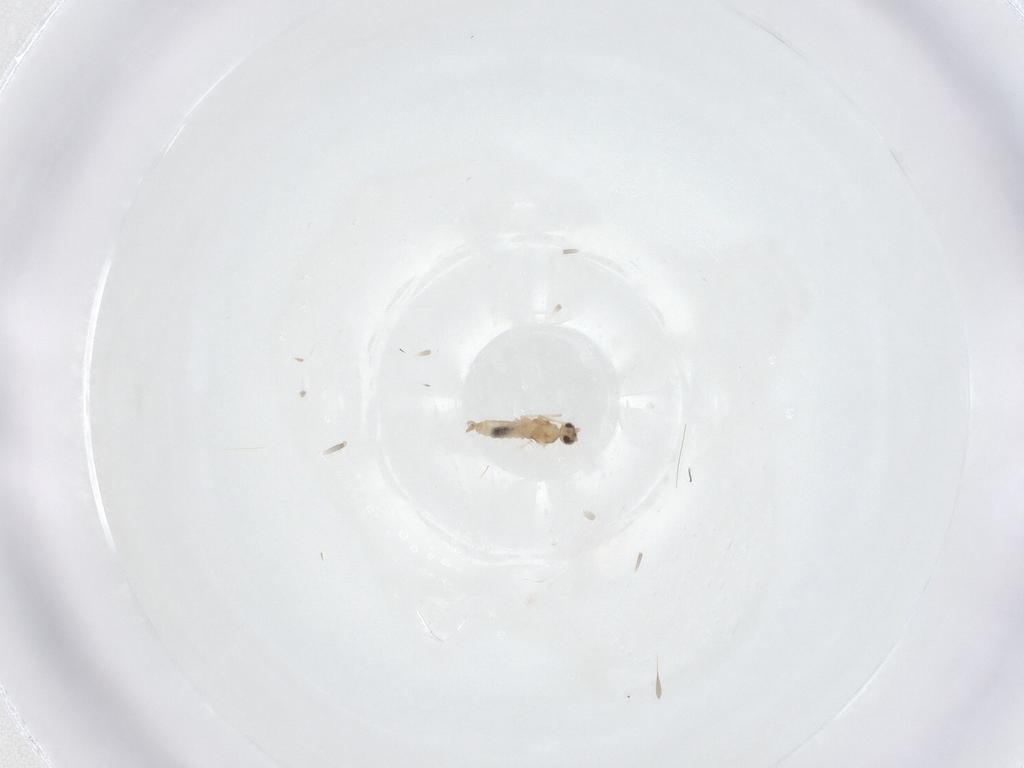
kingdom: Animalia
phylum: Arthropoda
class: Insecta
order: Diptera
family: Cecidomyiidae
